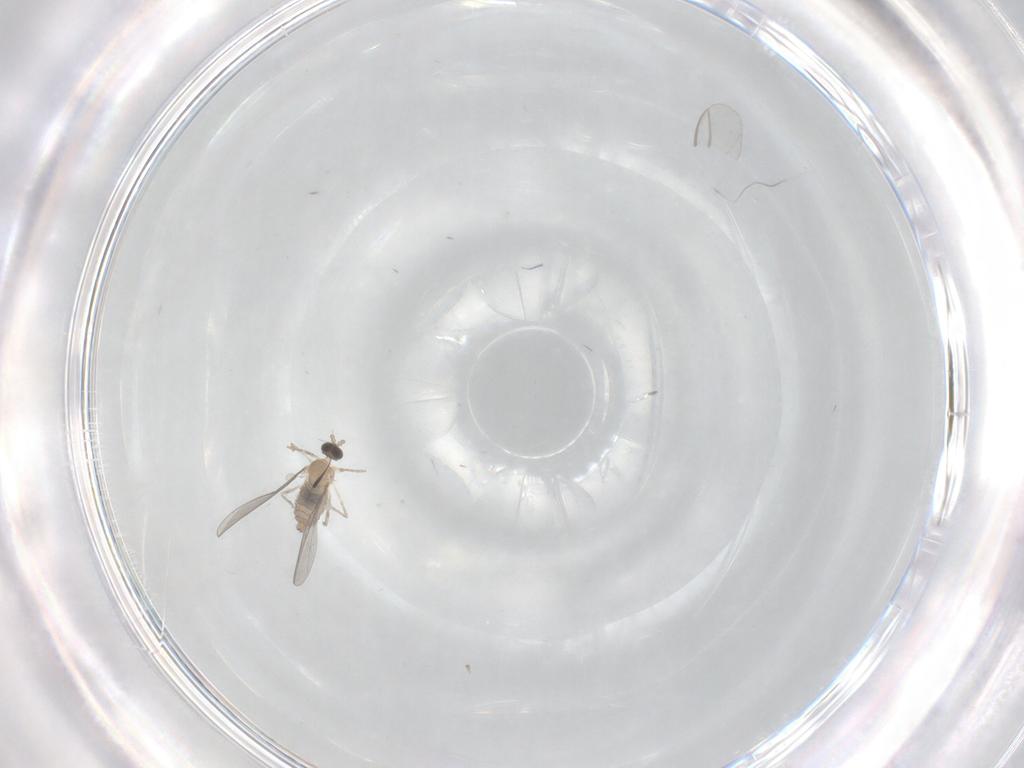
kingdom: Animalia
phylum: Arthropoda
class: Insecta
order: Diptera
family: Cecidomyiidae
